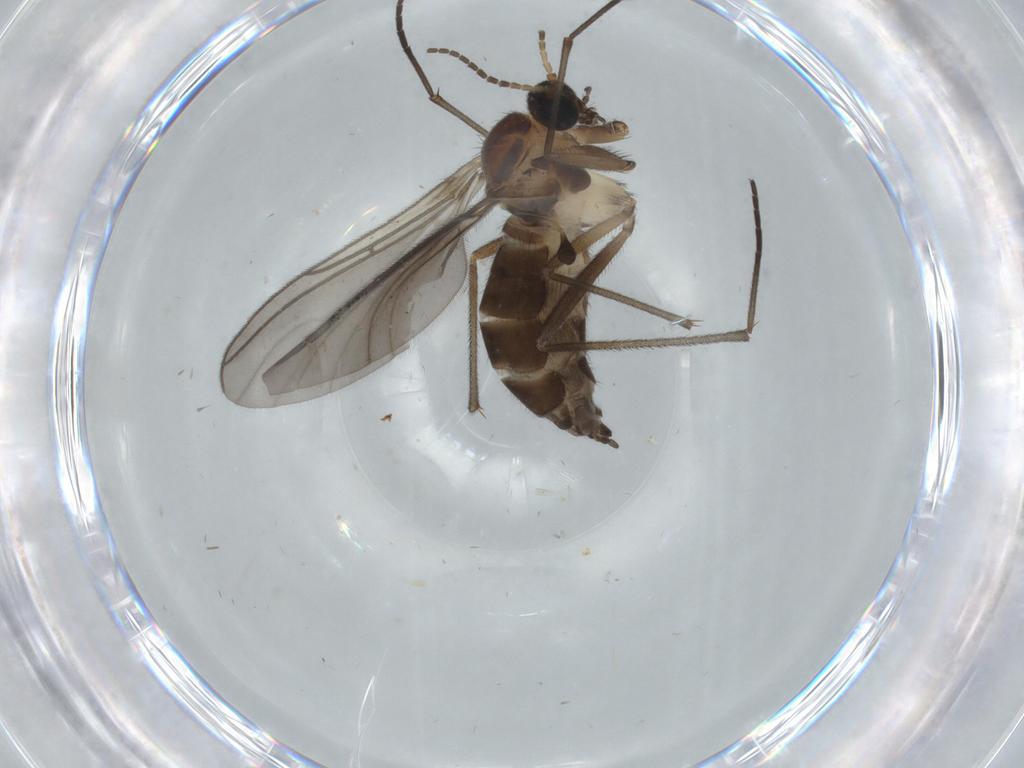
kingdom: Animalia
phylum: Arthropoda
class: Insecta
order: Diptera
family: Sciaridae
